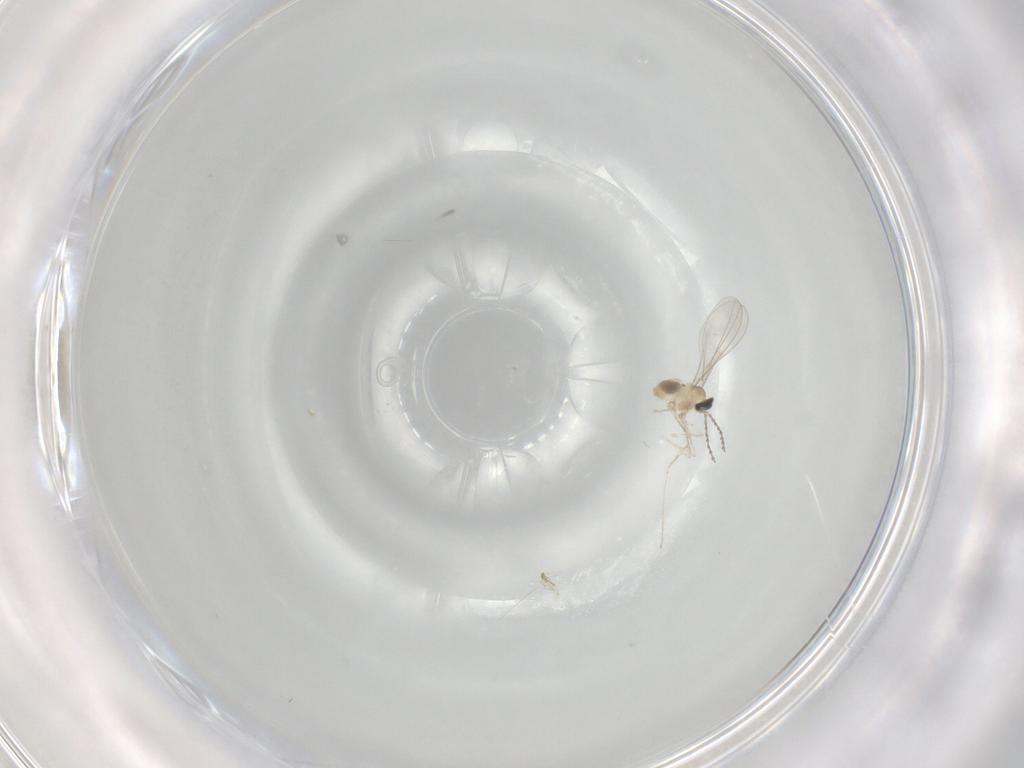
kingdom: Animalia
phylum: Arthropoda
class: Insecta
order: Diptera
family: Cecidomyiidae
